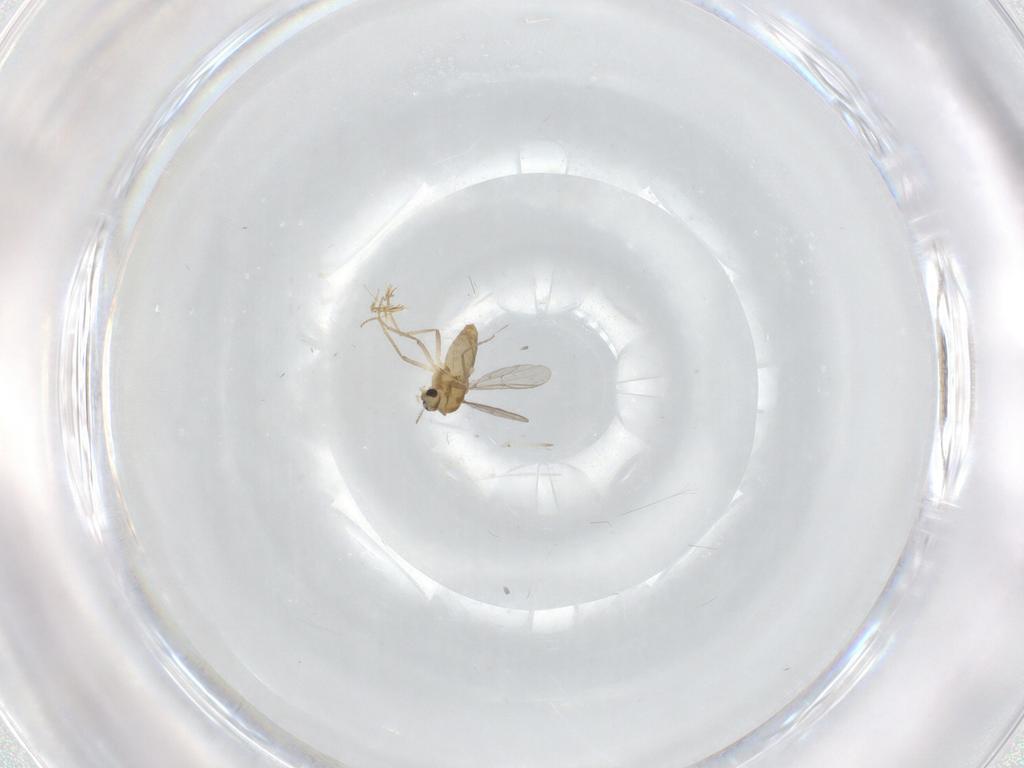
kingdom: Animalia
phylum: Arthropoda
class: Insecta
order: Diptera
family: Chironomidae
